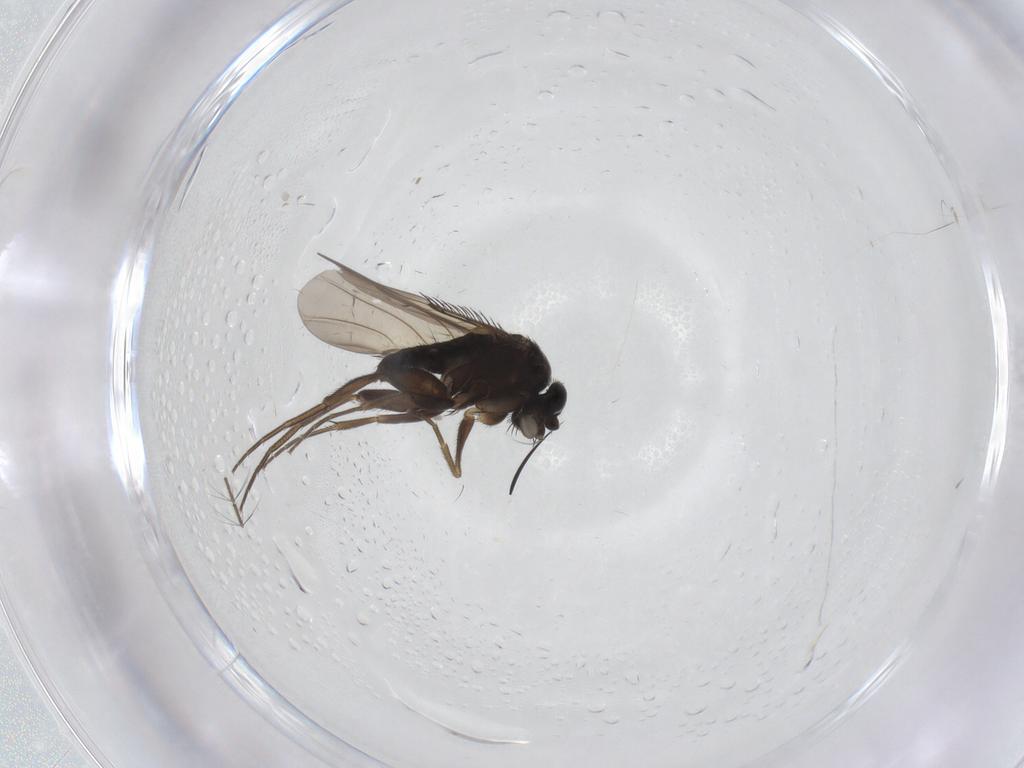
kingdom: Animalia
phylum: Arthropoda
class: Insecta
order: Diptera
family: Phoridae
